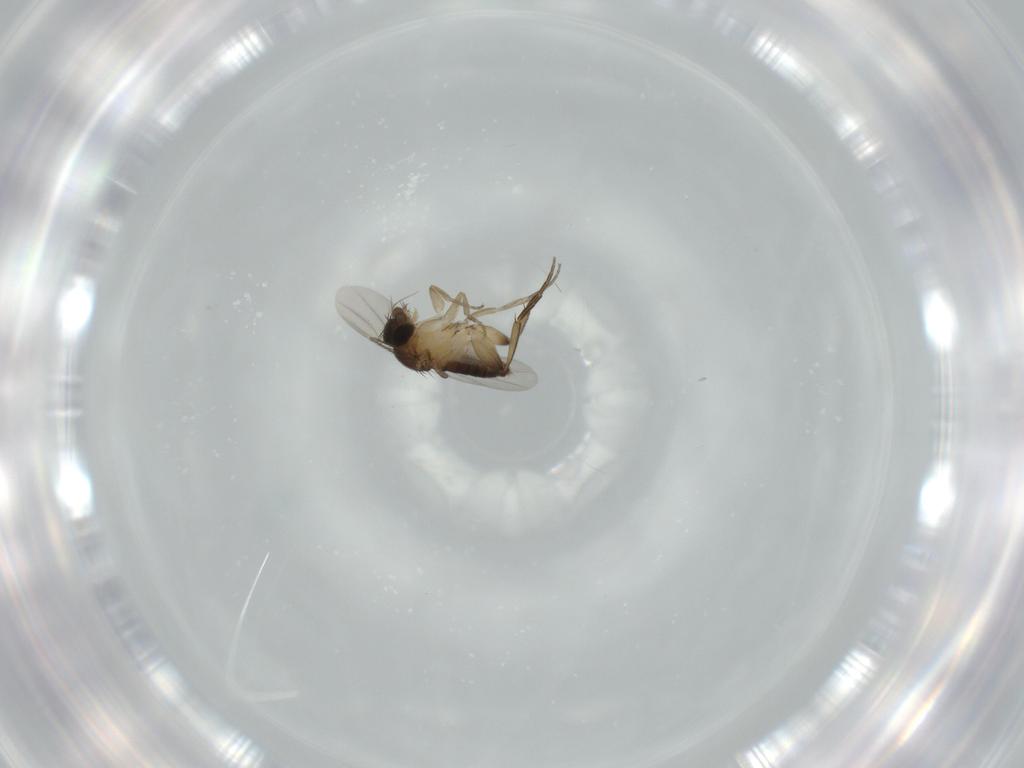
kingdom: Animalia
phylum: Arthropoda
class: Insecta
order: Diptera
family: Phoridae
